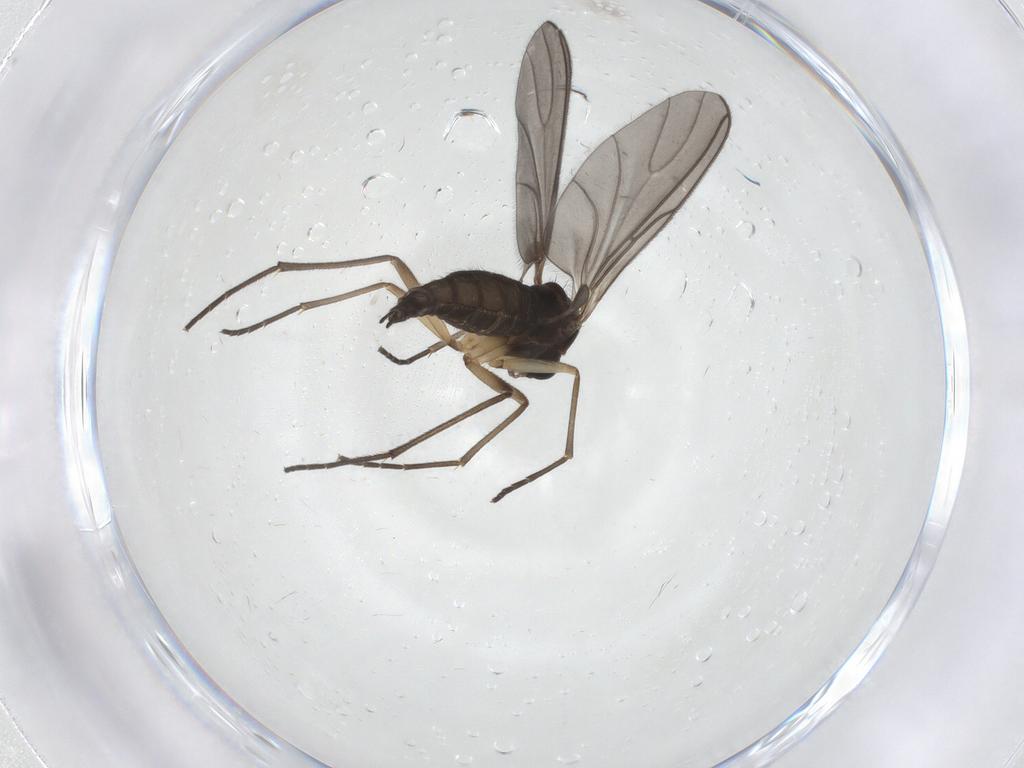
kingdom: Animalia
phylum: Arthropoda
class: Insecta
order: Diptera
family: Sciaridae
